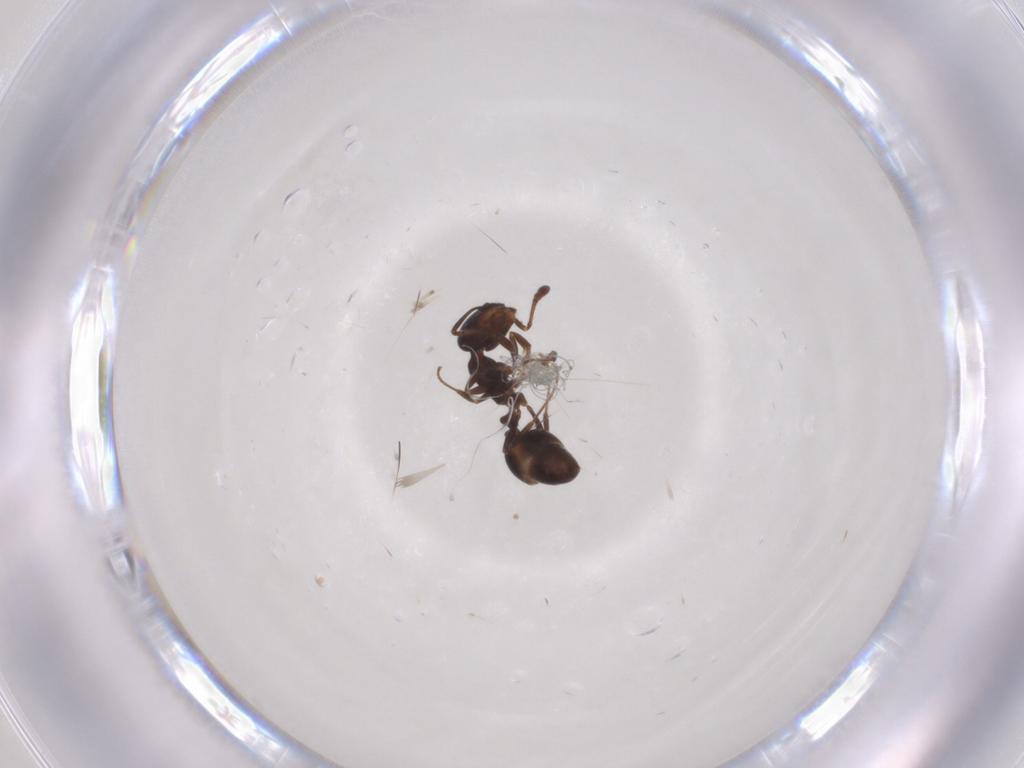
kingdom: Animalia
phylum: Arthropoda
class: Insecta
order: Hymenoptera
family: Formicidae
